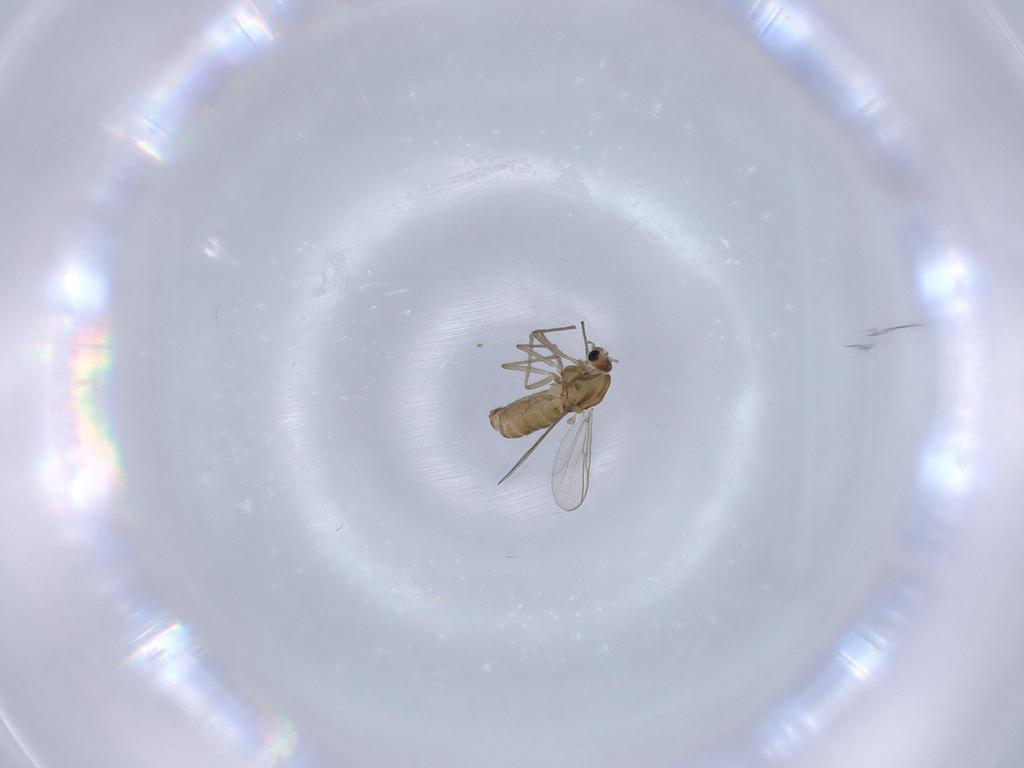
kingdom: Animalia
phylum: Arthropoda
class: Insecta
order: Diptera
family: Chironomidae
